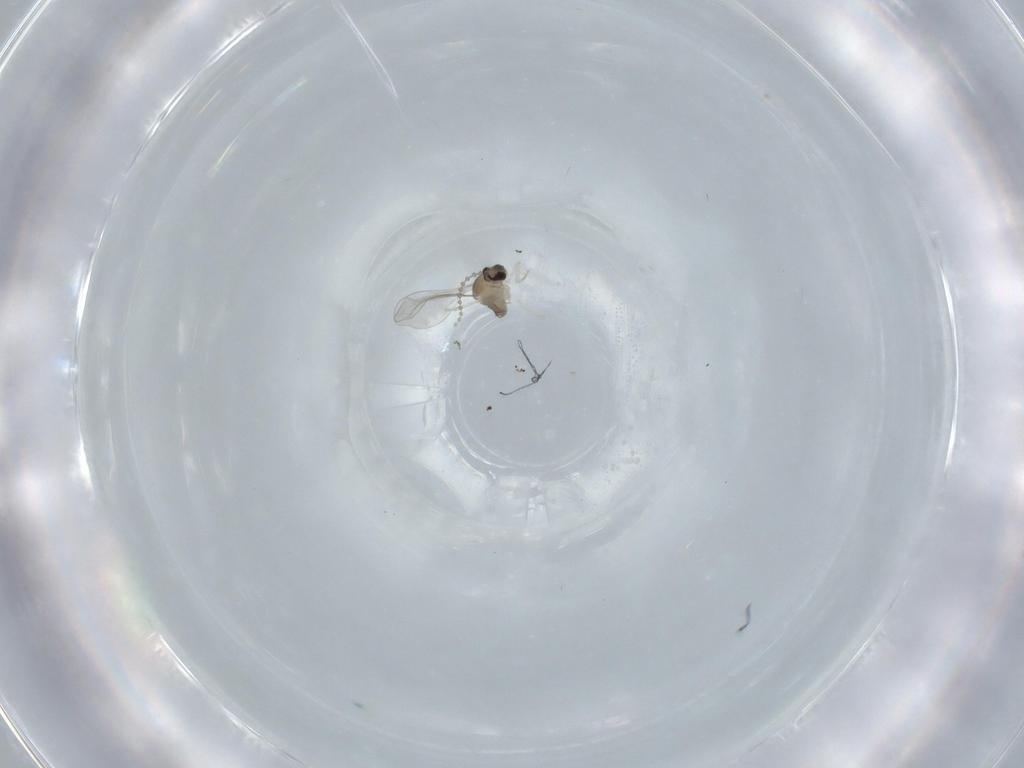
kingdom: Animalia
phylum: Arthropoda
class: Insecta
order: Diptera
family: Cecidomyiidae
